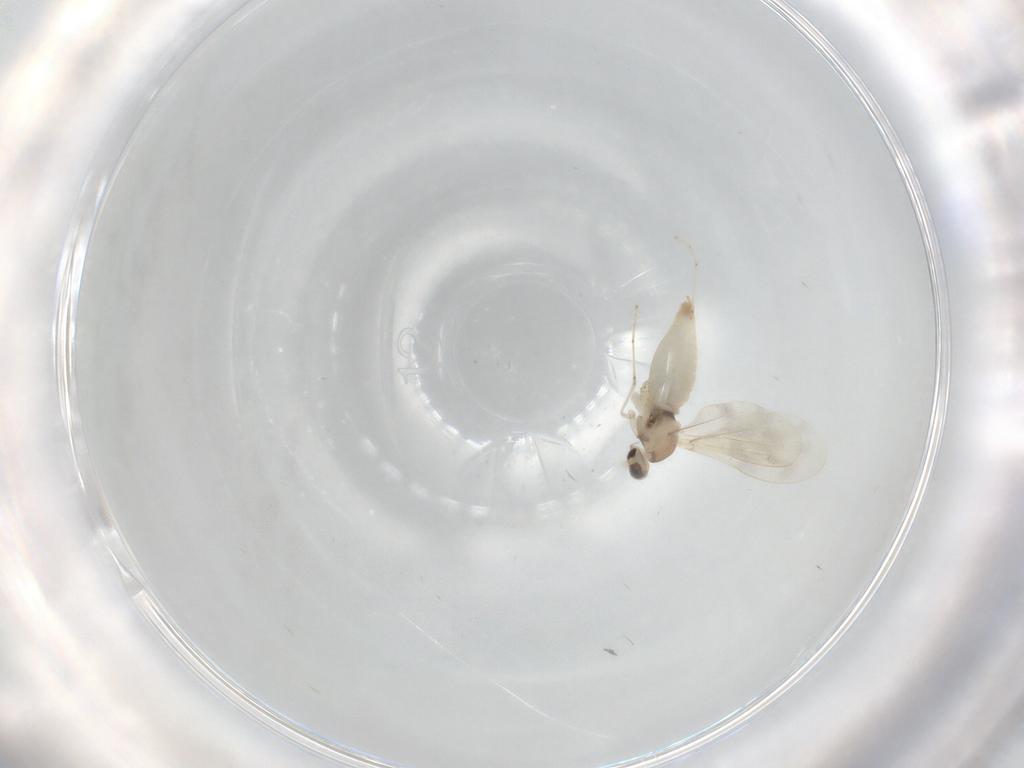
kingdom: Animalia
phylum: Arthropoda
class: Insecta
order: Diptera
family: Cecidomyiidae
